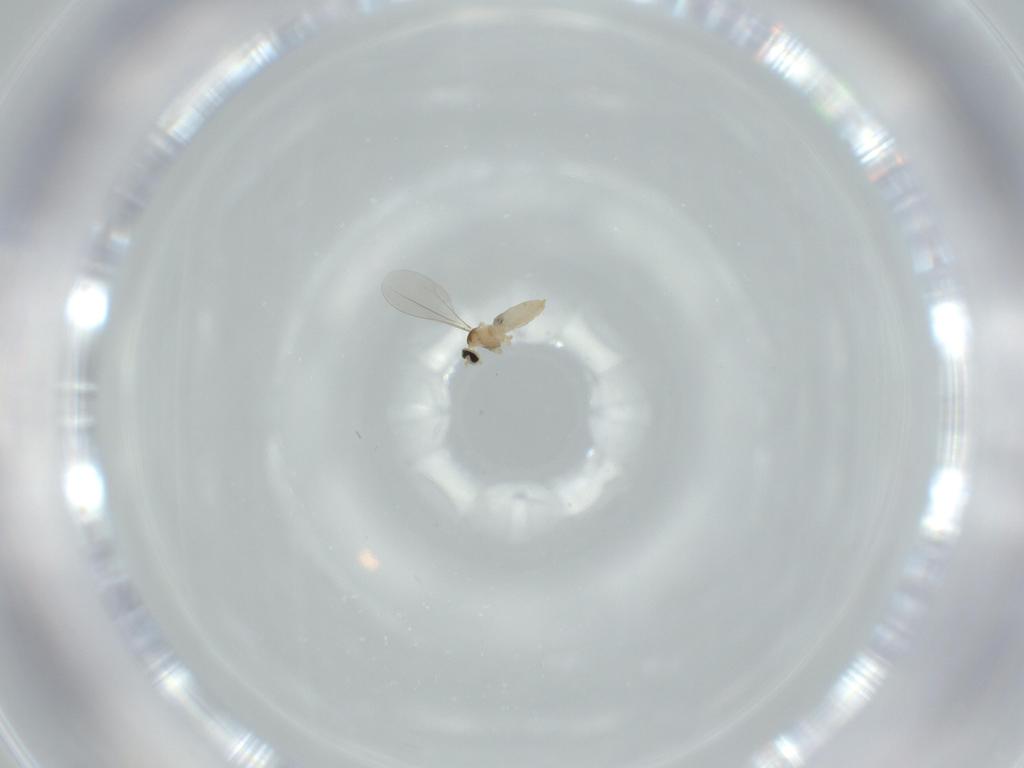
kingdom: Animalia
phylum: Arthropoda
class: Insecta
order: Diptera
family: Cecidomyiidae
